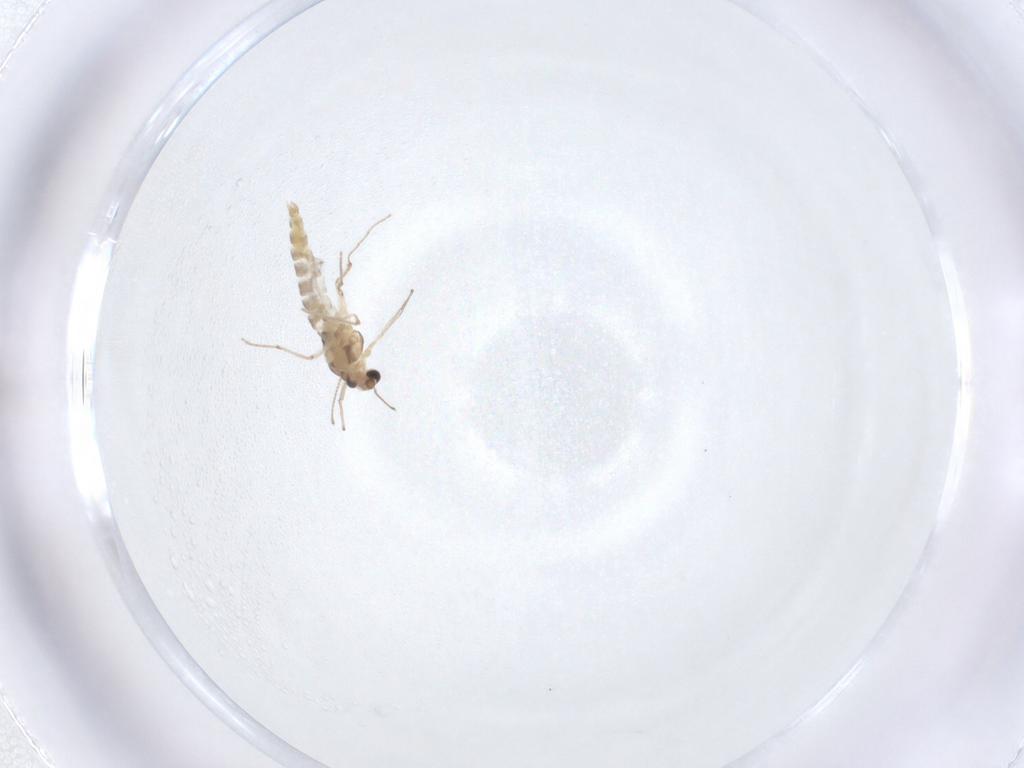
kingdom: Animalia
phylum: Arthropoda
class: Insecta
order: Diptera
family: Chironomidae
